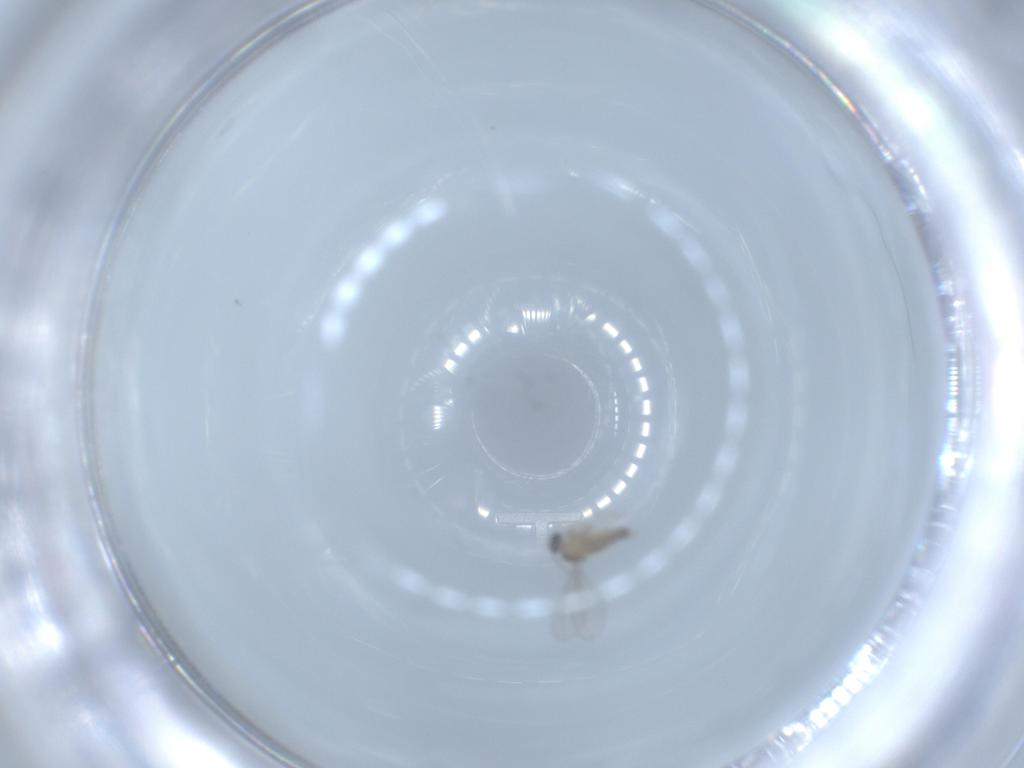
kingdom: Animalia
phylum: Arthropoda
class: Insecta
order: Diptera
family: Cecidomyiidae
